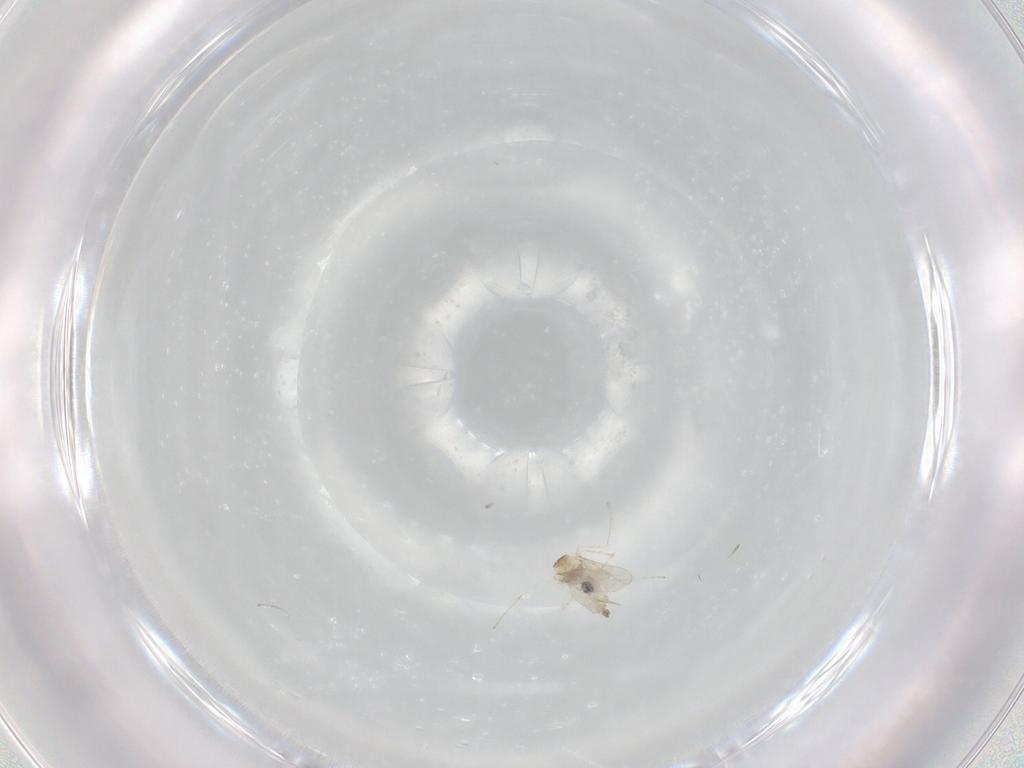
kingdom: Animalia
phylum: Arthropoda
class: Insecta
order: Diptera
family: Cecidomyiidae
